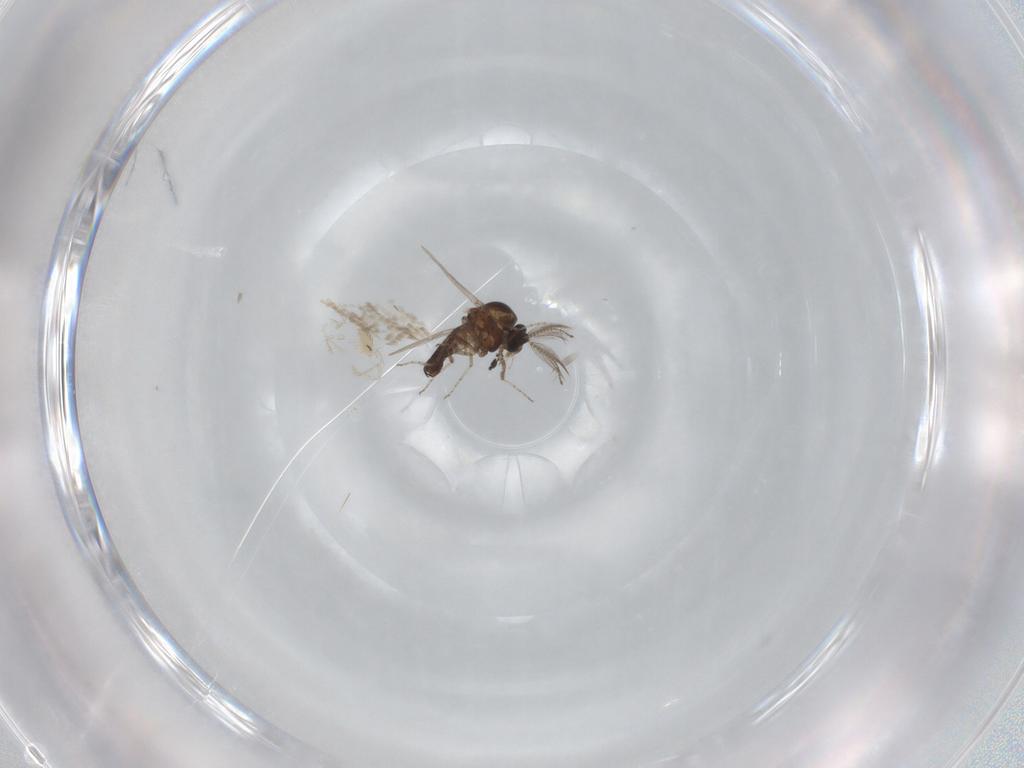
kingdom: Animalia
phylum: Arthropoda
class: Insecta
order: Diptera
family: Ceratopogonidae
